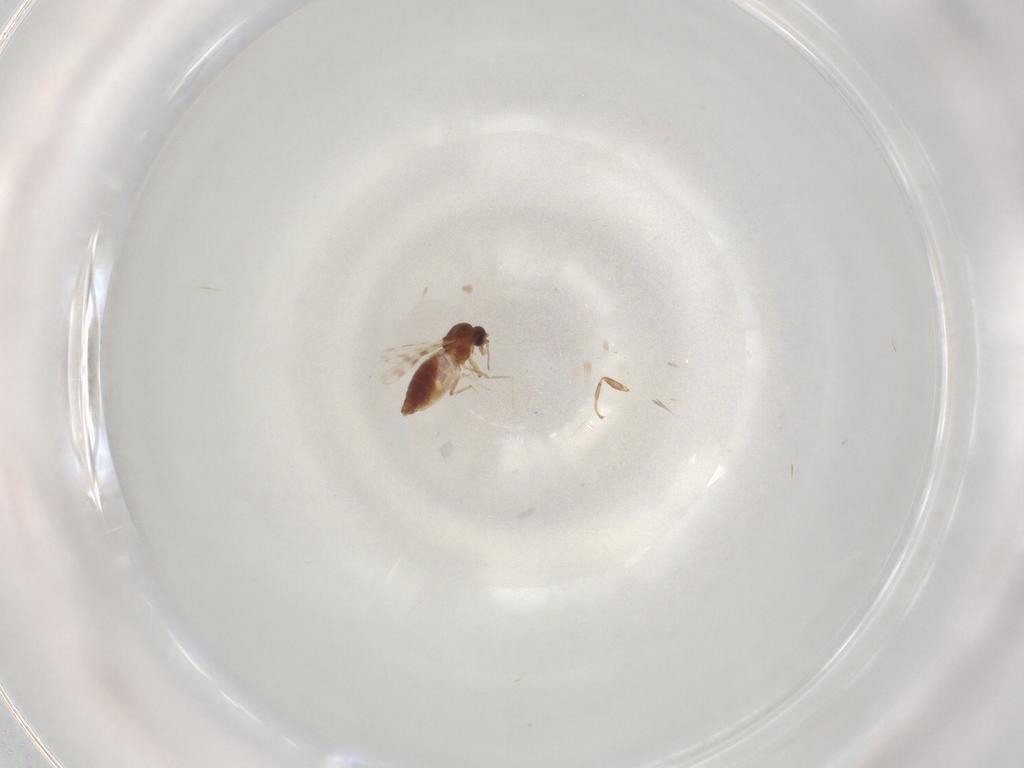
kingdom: Animalia
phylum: Arthropoda
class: Insecta
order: Diptera
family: Scatopsidae
